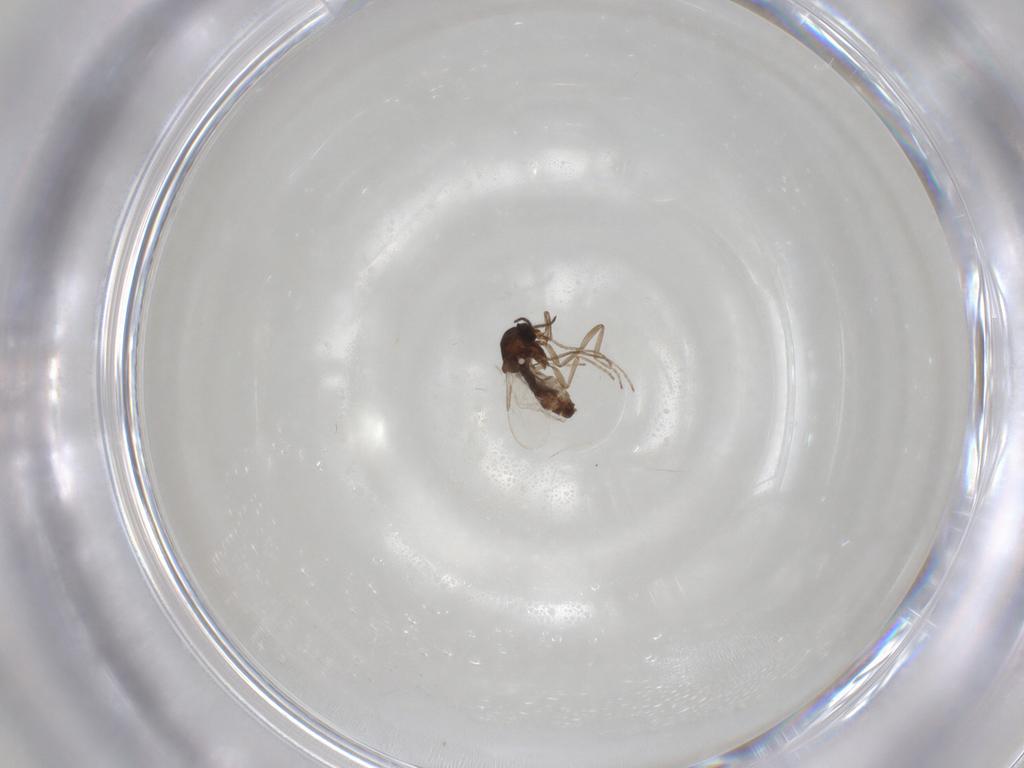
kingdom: Animalia
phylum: Arthropoda
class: Insecta
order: Diptera
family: Ceratopogonidae
